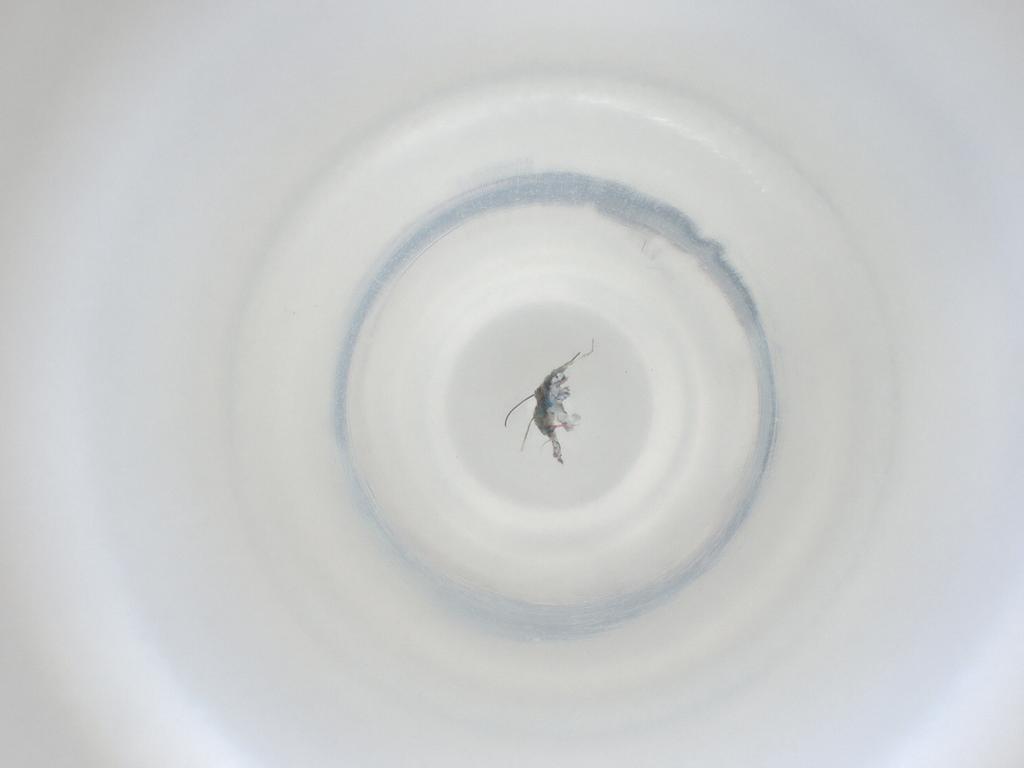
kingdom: Animalia
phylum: Arthropoda
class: Insecta
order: Diptera
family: Cecidomyiidae
